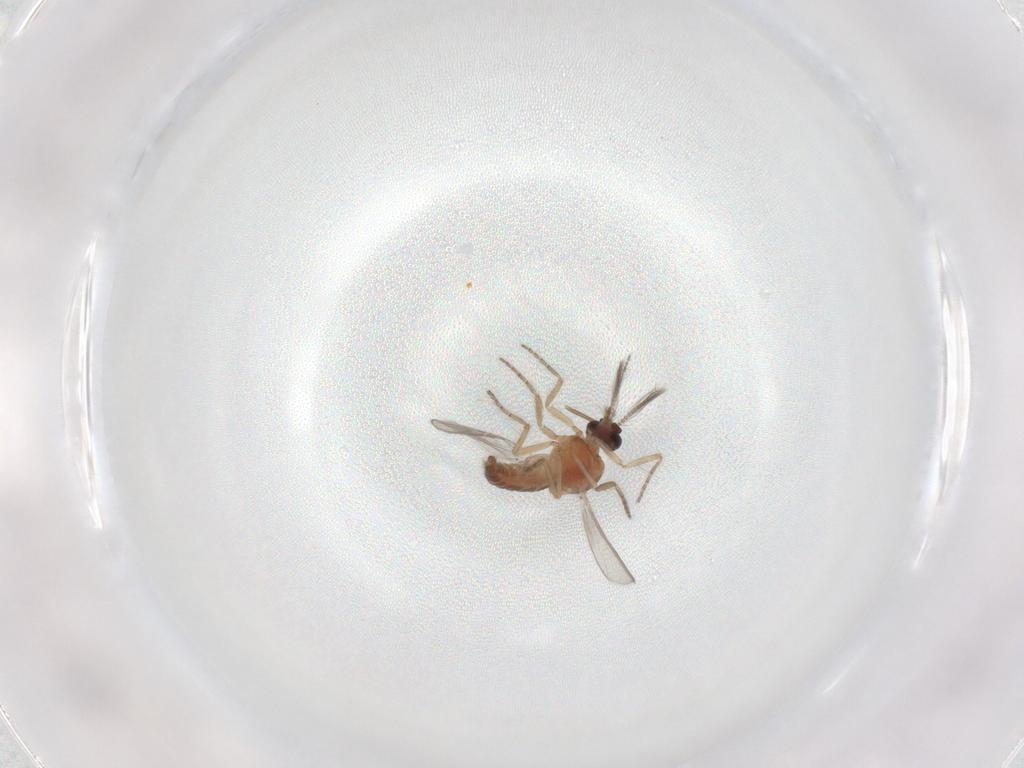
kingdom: Animalia
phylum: Arthropoda
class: Insecta
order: Diptera
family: Ceratopogonidae
